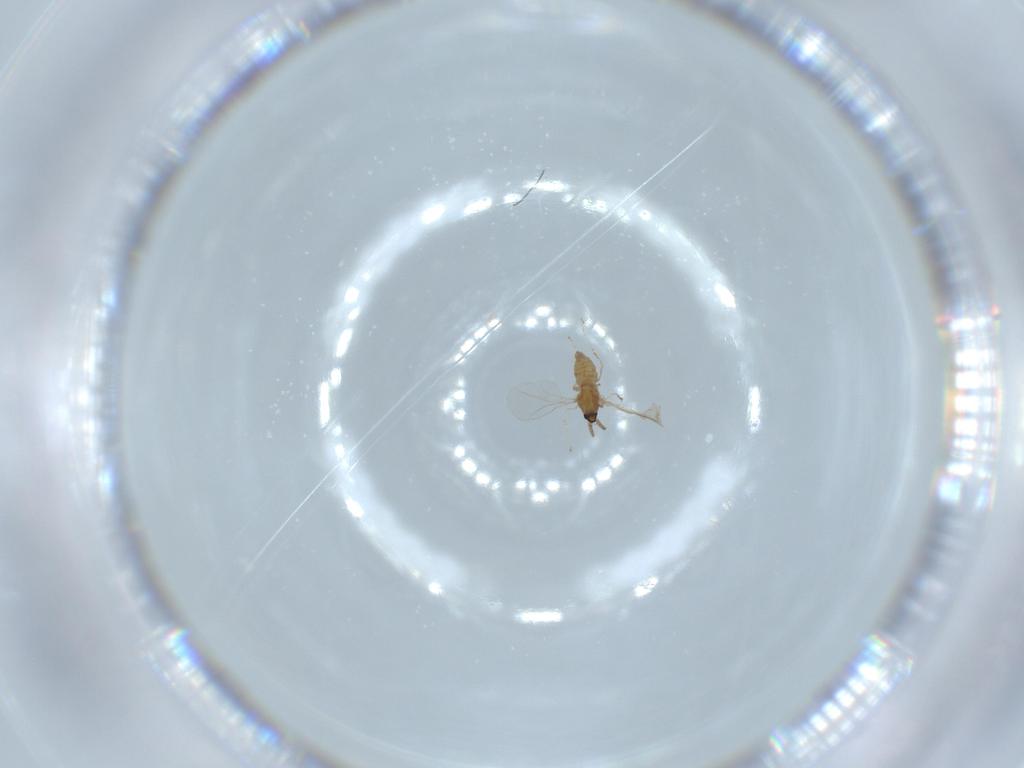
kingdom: Animalia
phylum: Arthropoda
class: Insecta
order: Diptera
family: Cecidomyiidae
